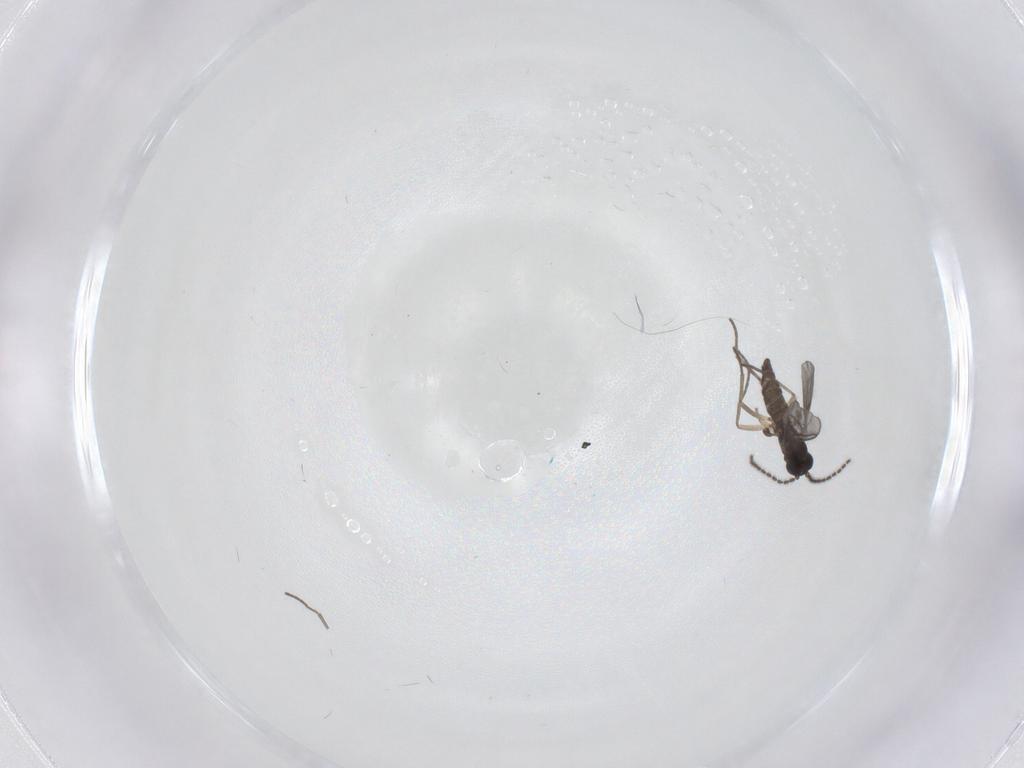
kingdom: Animalia
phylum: Arthropoda
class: Insecta
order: Diptera
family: Sciaridae
